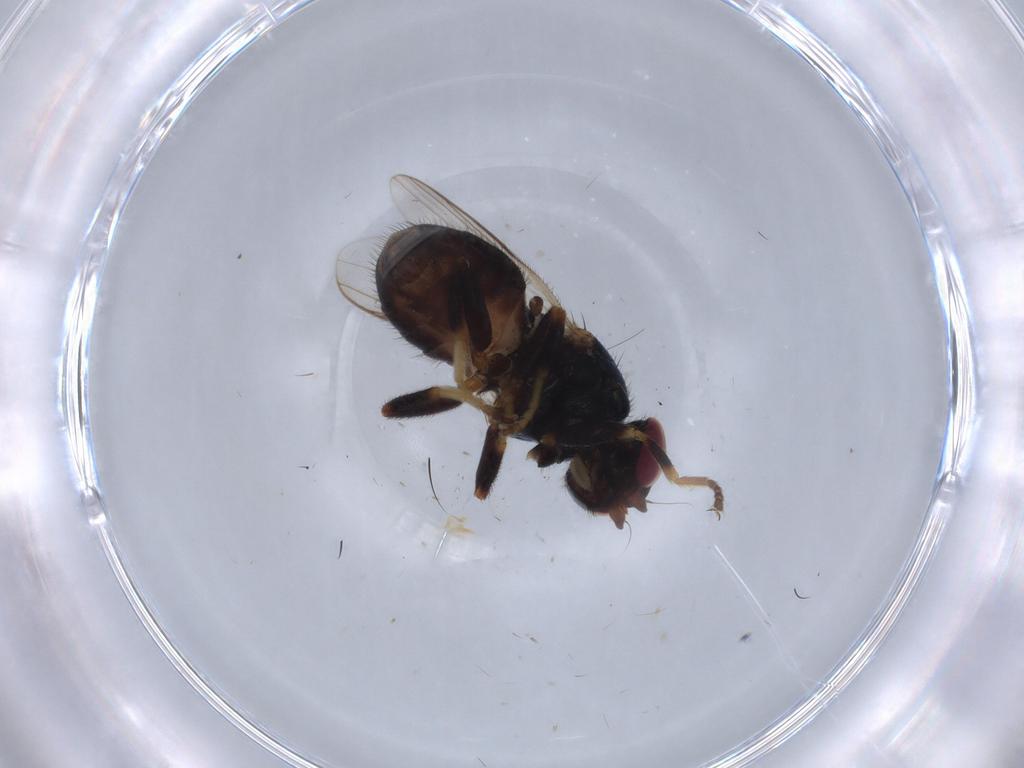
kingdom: Animalia
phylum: Arthropoda
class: Insecta
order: Diptera
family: Chloropidae
